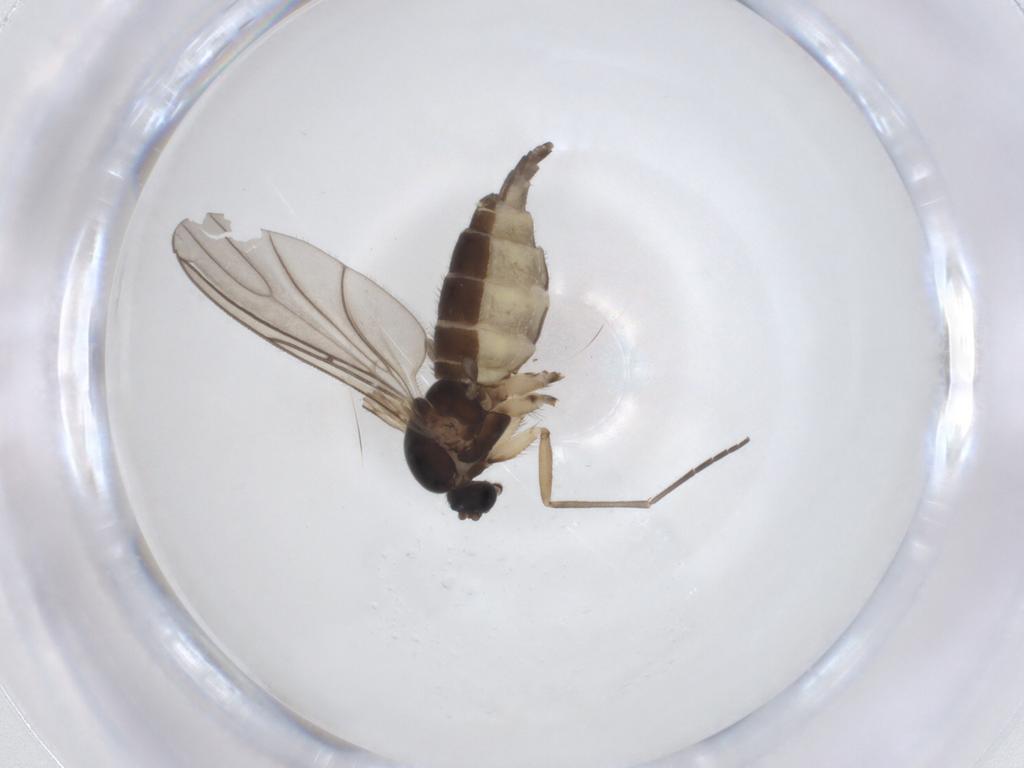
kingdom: Animalia
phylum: Arthropoda
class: Insecta
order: Diptera
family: Sciaridae
